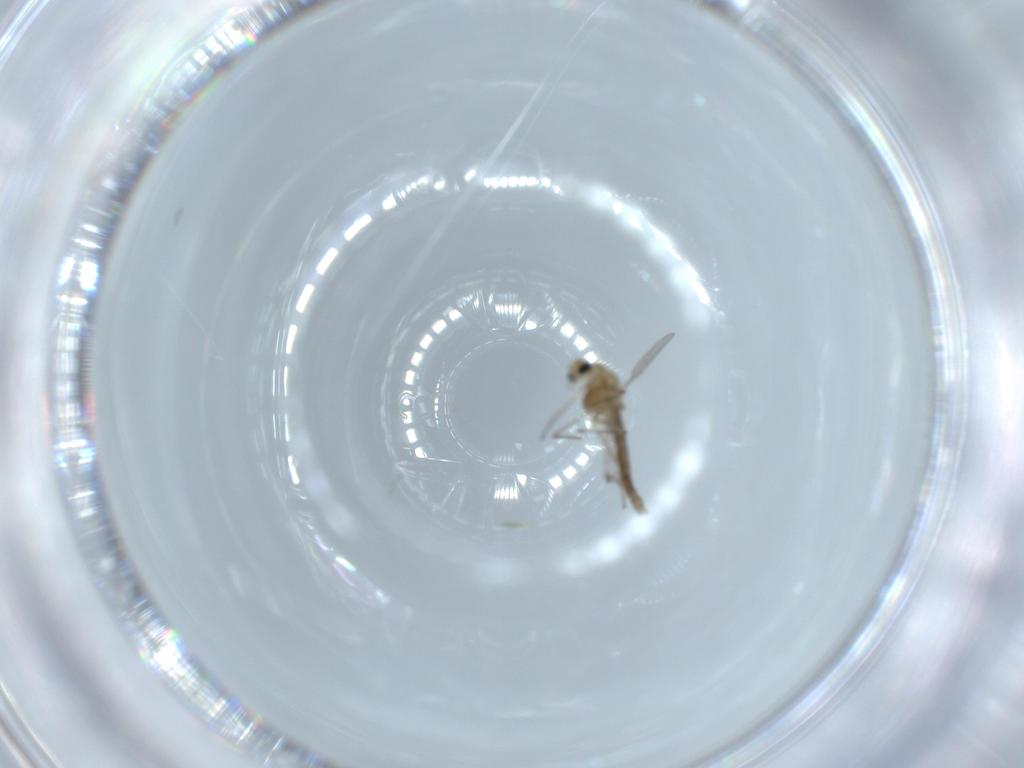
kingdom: Animalia
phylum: Arthropoda
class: Insecta
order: Diptera
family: Chironomidae
